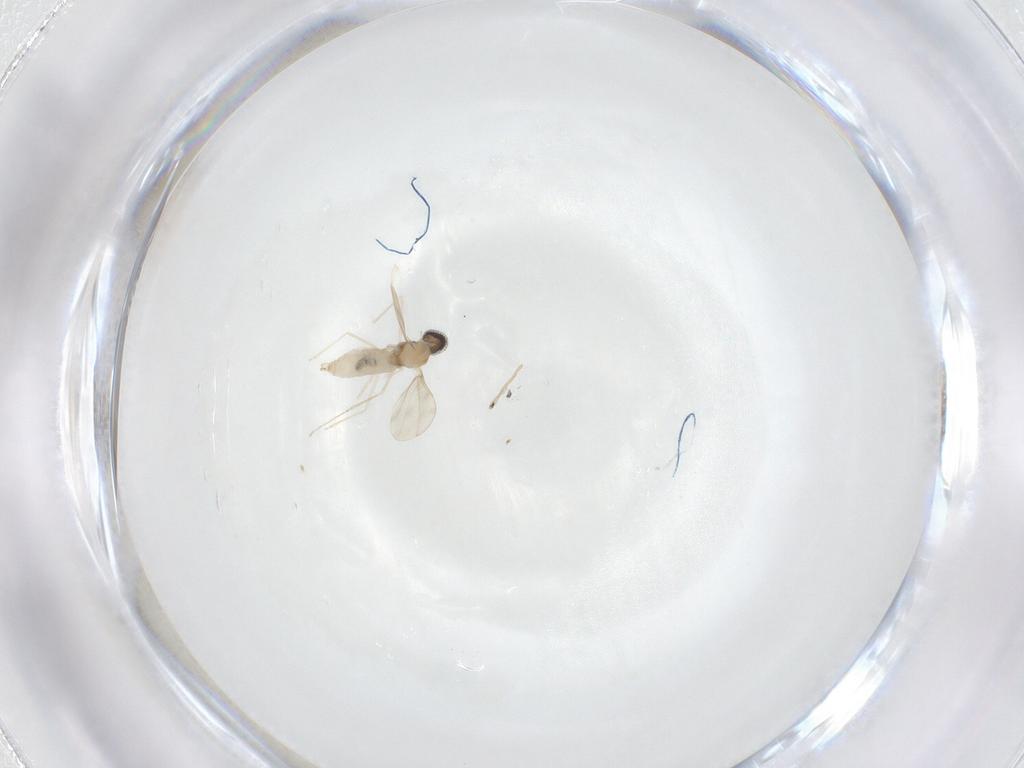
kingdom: Animalia
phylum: Arthropoda
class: Insecta
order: Diptera
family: Cecidomyiidae
